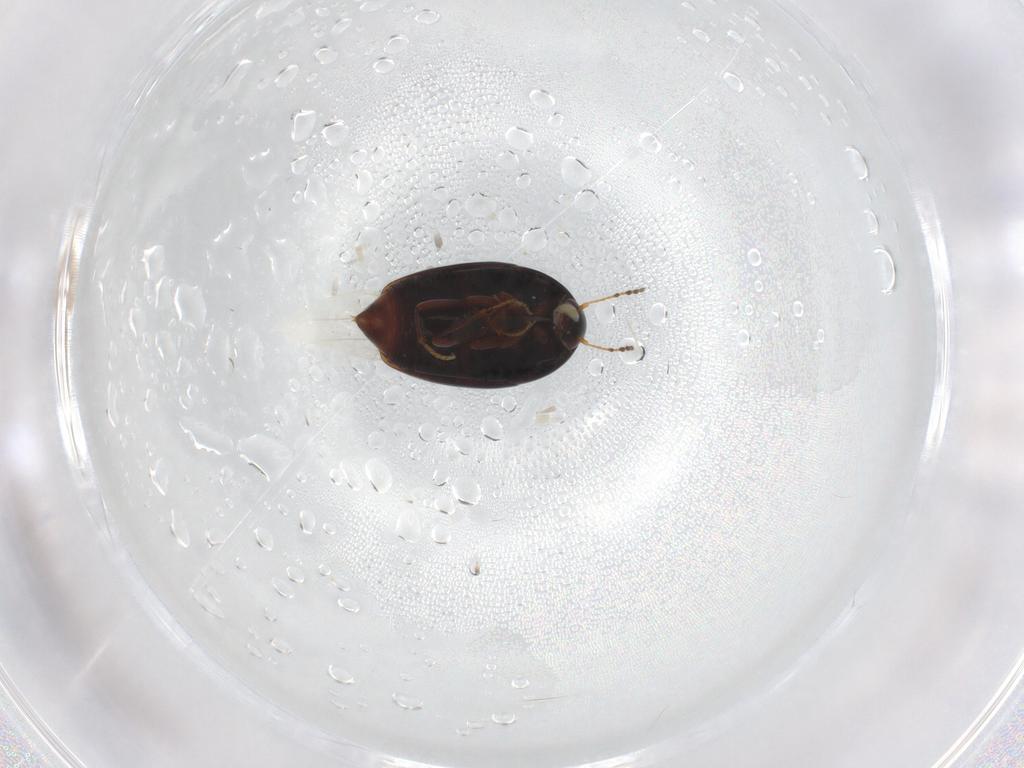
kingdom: Animalia
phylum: Arthropoda
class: Insecta
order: Coleoptera
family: Staphylinidae
